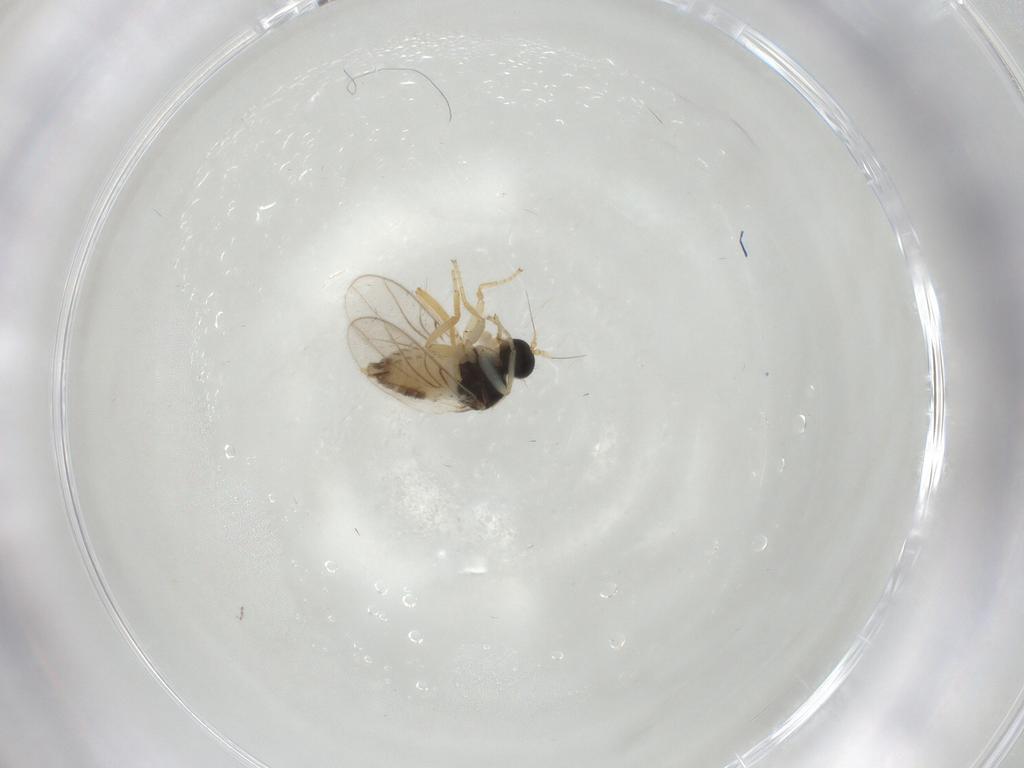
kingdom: Animalia
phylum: Arthropoda
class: Insecta
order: Diptera
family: Hybotidae
